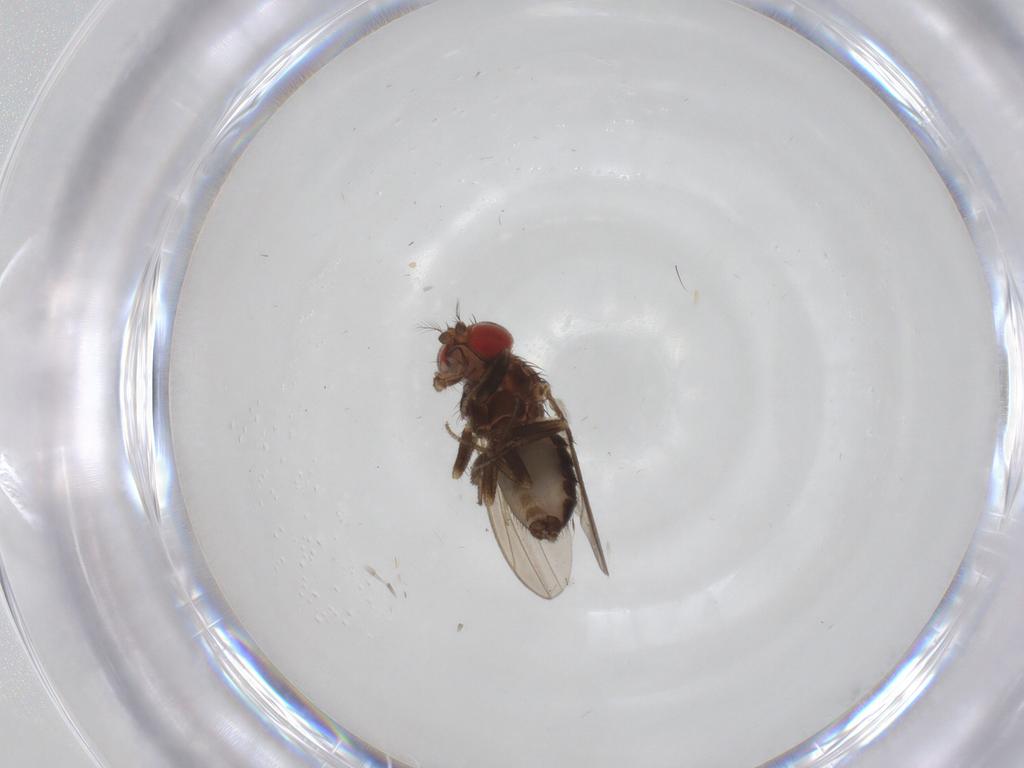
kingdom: Animalia
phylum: Arthropoda
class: Insecta
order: Diptera
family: Drosophilidae
